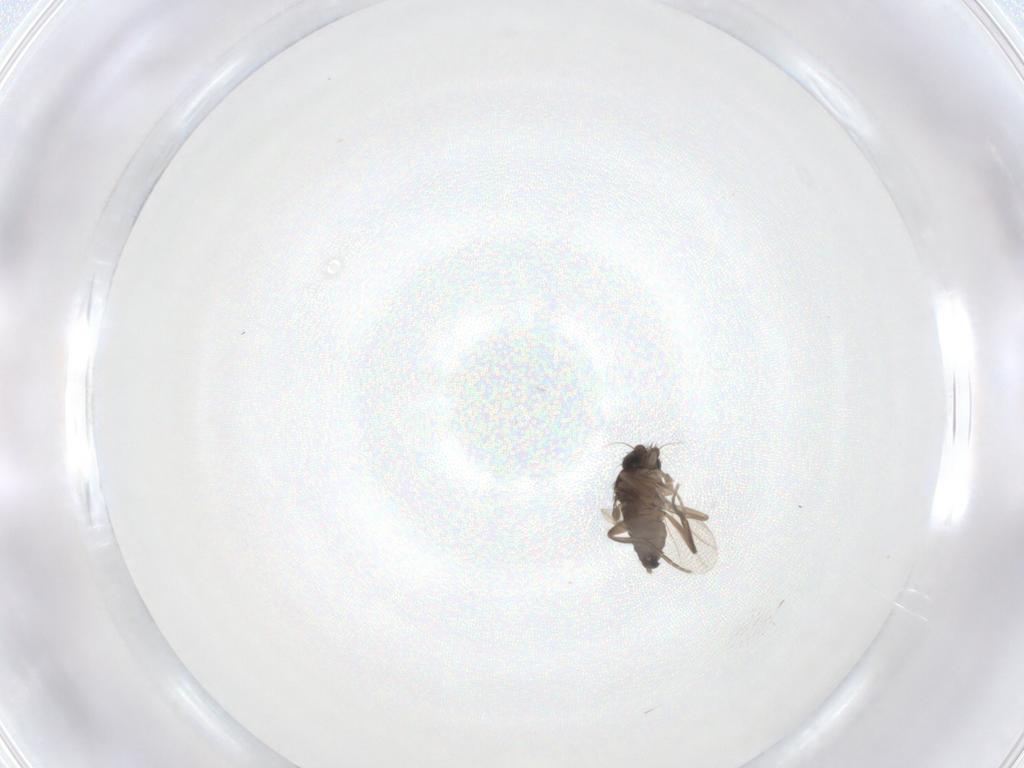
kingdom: Animalia
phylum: Arthropoda
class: Insecta
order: Diptera
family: Phoridae
